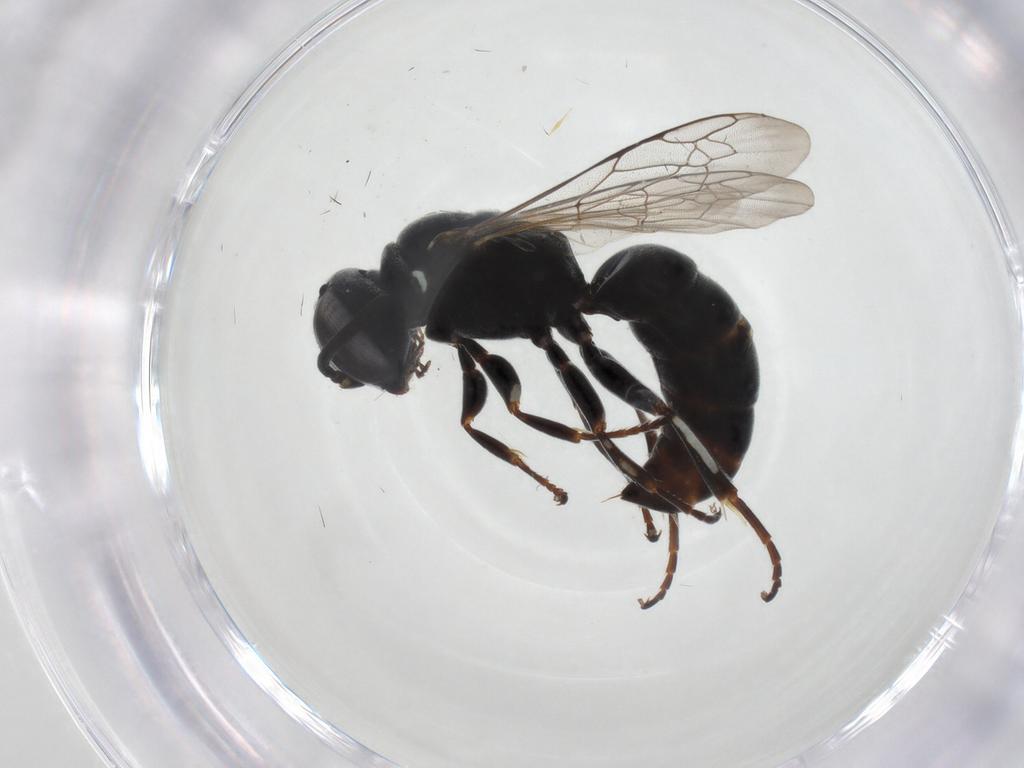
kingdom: Animalia
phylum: Arthropoda
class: Insecta
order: Hymenoptera
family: Crabronidae
